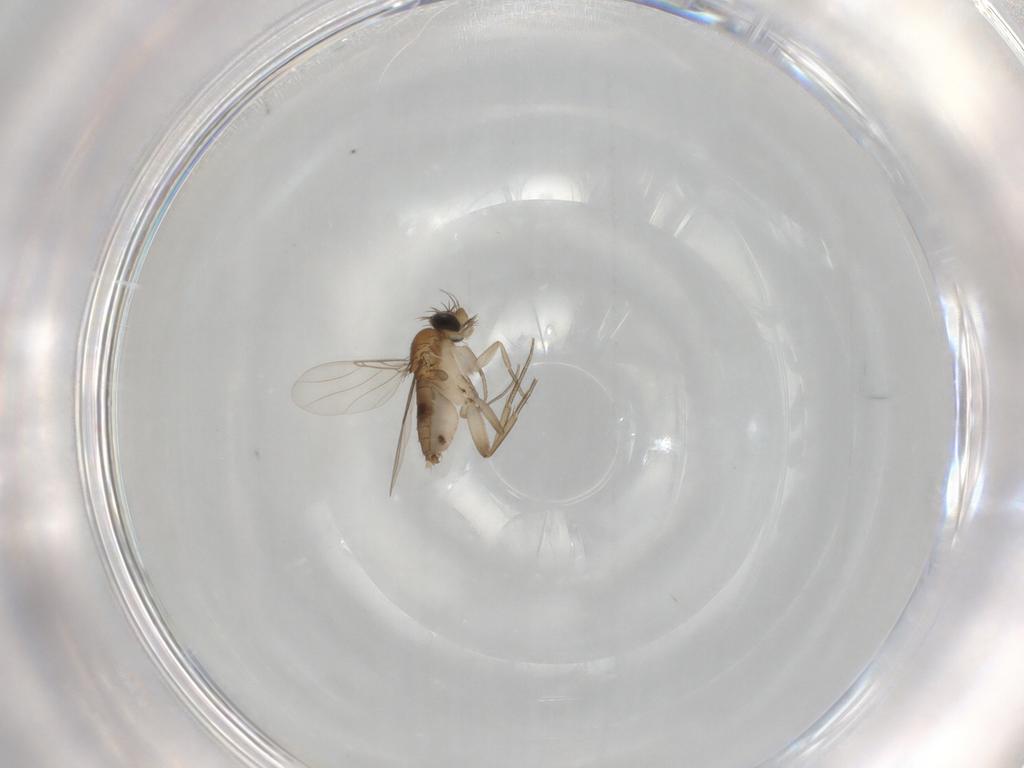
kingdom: Animalia
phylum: Arthropoda
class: Insecta
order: Diptera
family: Phoridae
